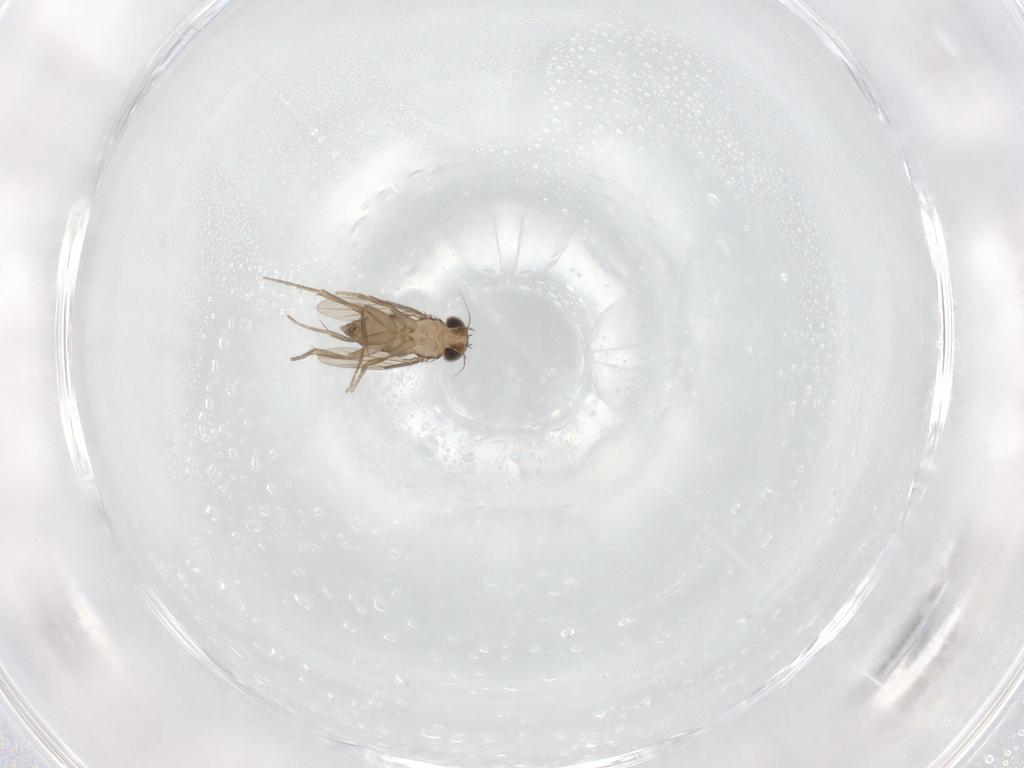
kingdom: Animalia
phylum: Arthropoda
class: Insecta
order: Diptera
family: Phoridae
